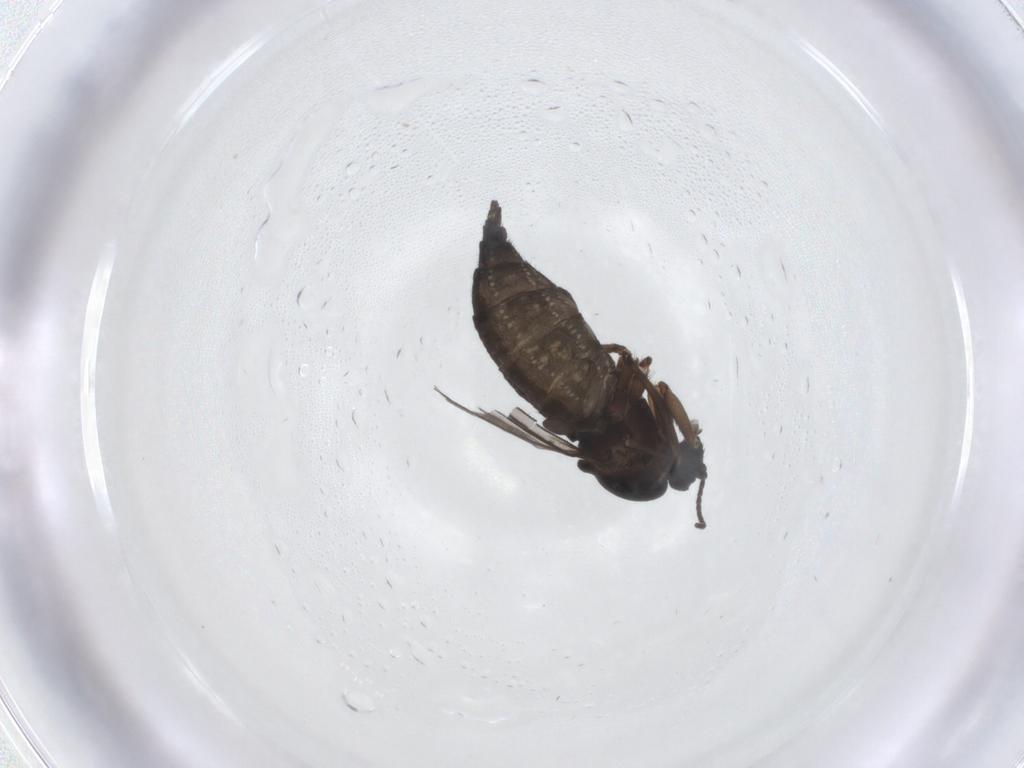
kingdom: Animalia
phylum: Arthropoda
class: Insecta
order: Diptera
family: Sciaridae
